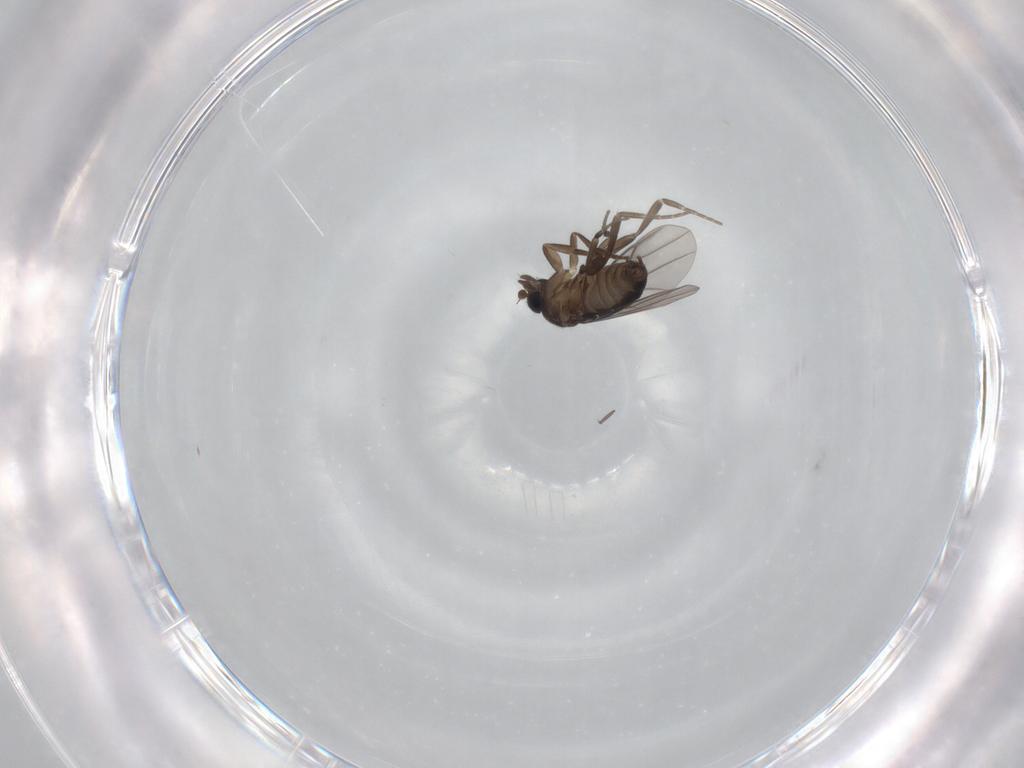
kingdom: Animalia
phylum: Arthropoda
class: Insecta
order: Diptera
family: Phoridae
